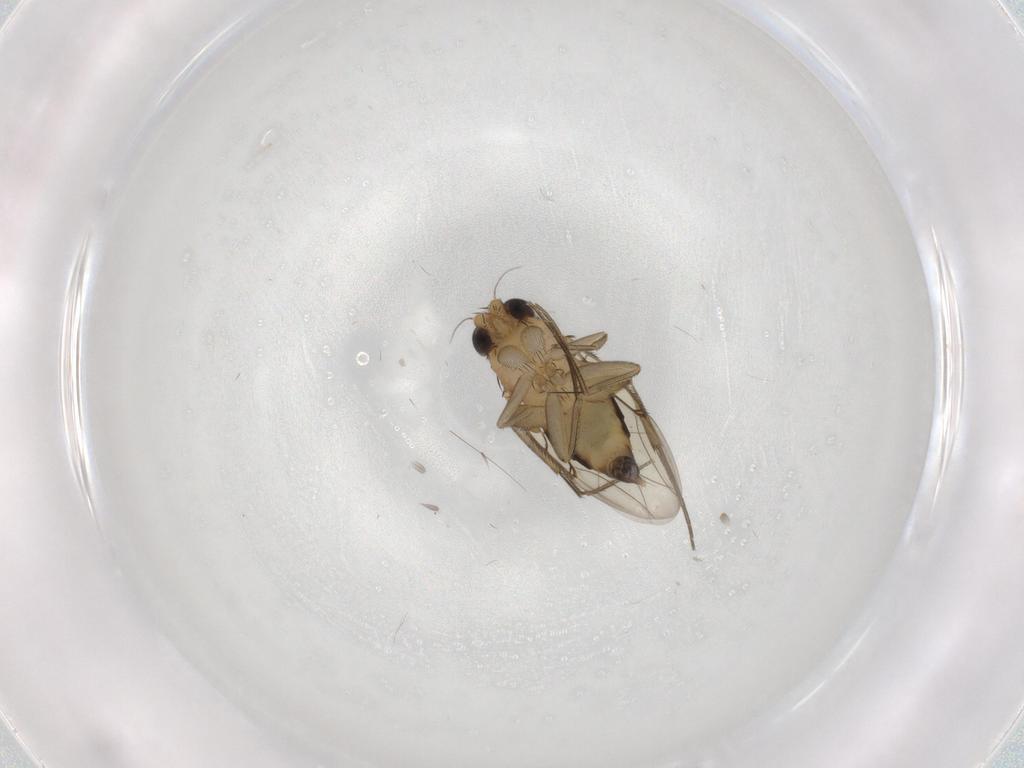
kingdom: Animalia
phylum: Arthropoda
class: Insecta
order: Diptera
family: Phoridae
